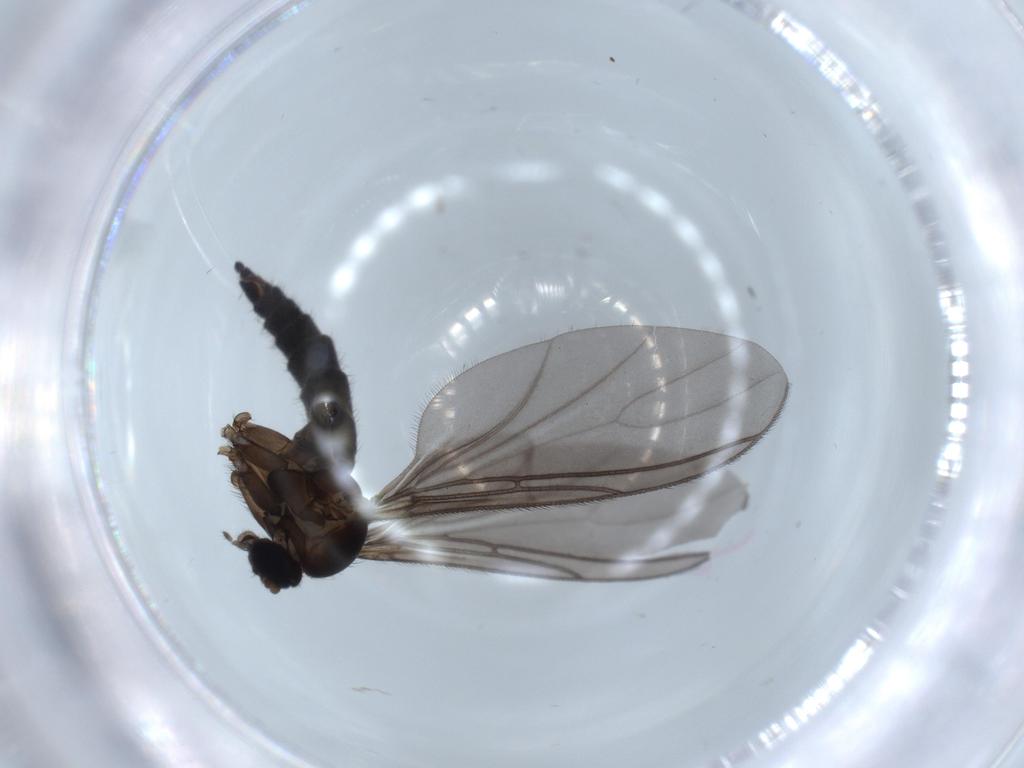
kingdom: Animalia
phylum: Arthropoda
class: Insecta
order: Diptera
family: Sciaridae
